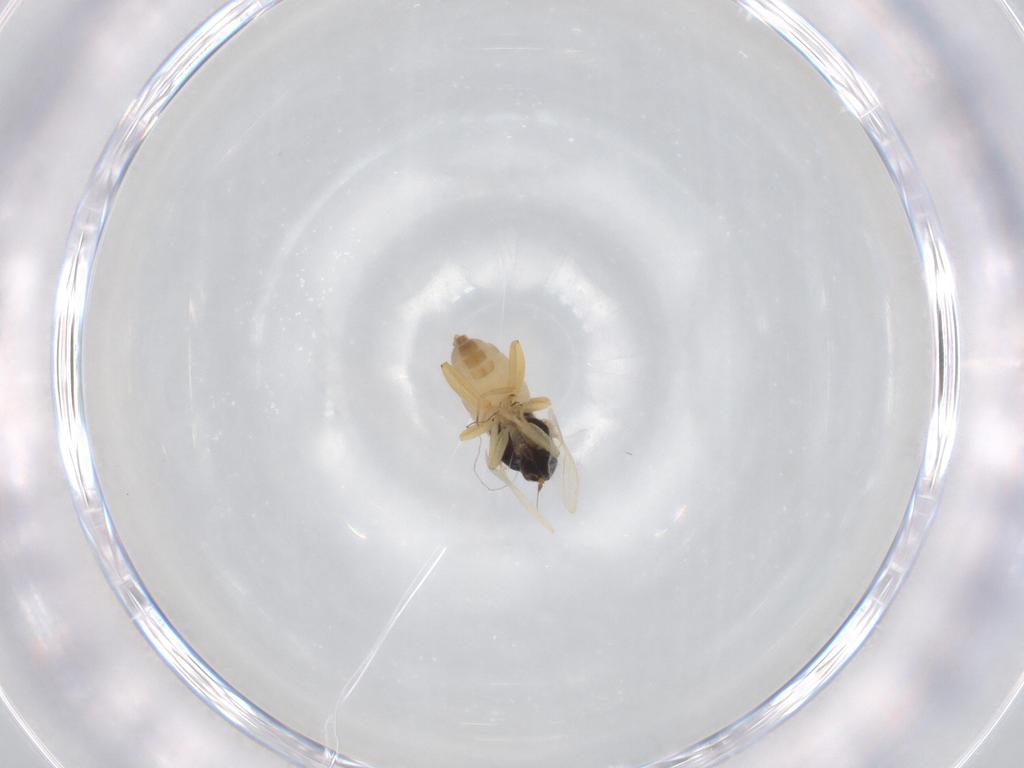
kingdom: Animalia
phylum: Arthropoda
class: Insecta
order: Diptera
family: Hybotidae
